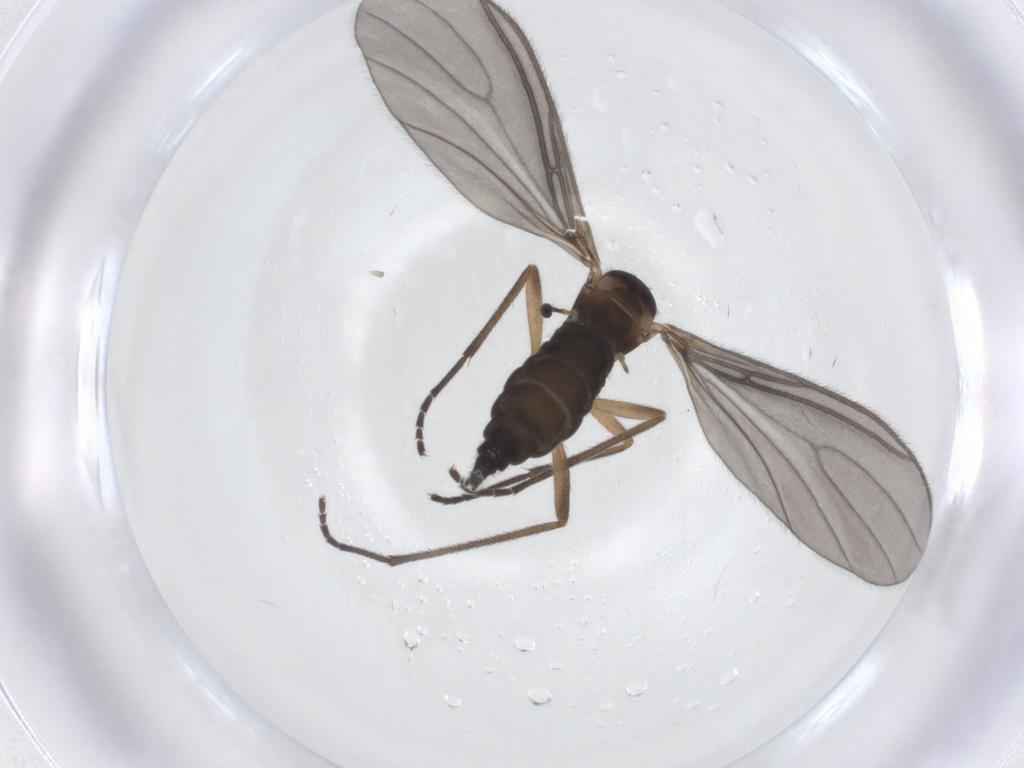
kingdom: Animalia
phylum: Arthropoda
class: Insecta
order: Diptera
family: Sciaridae
